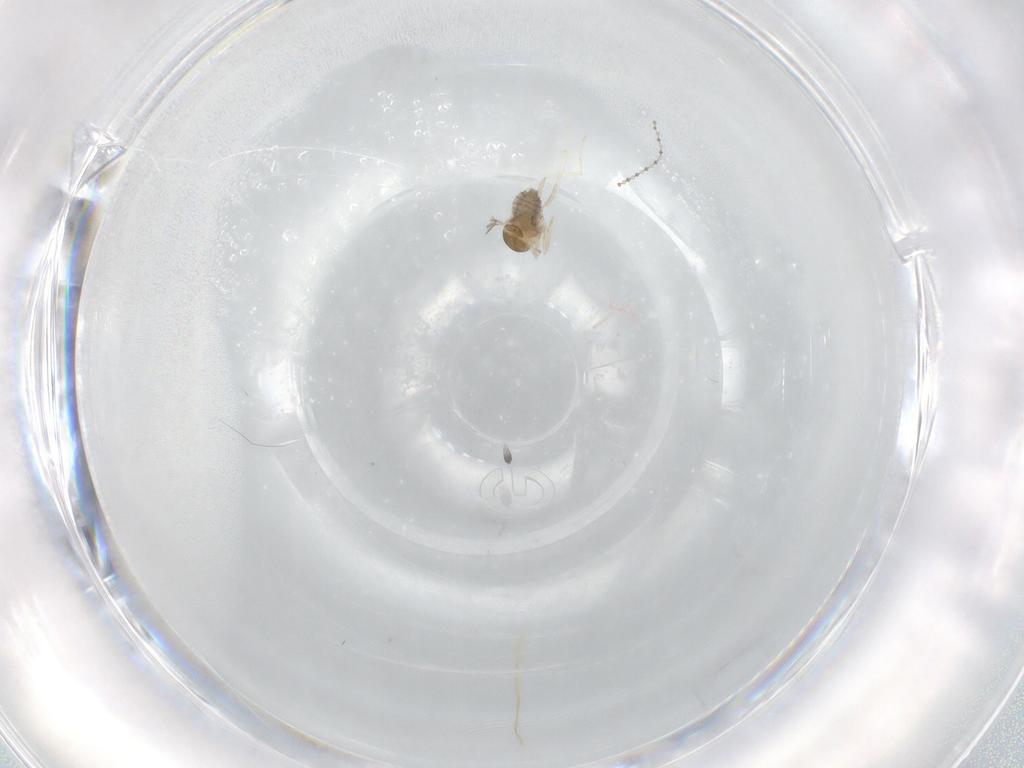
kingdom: Animalia
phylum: Arthropoda
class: Insecta
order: Diptera
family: Cecidomyiidae
